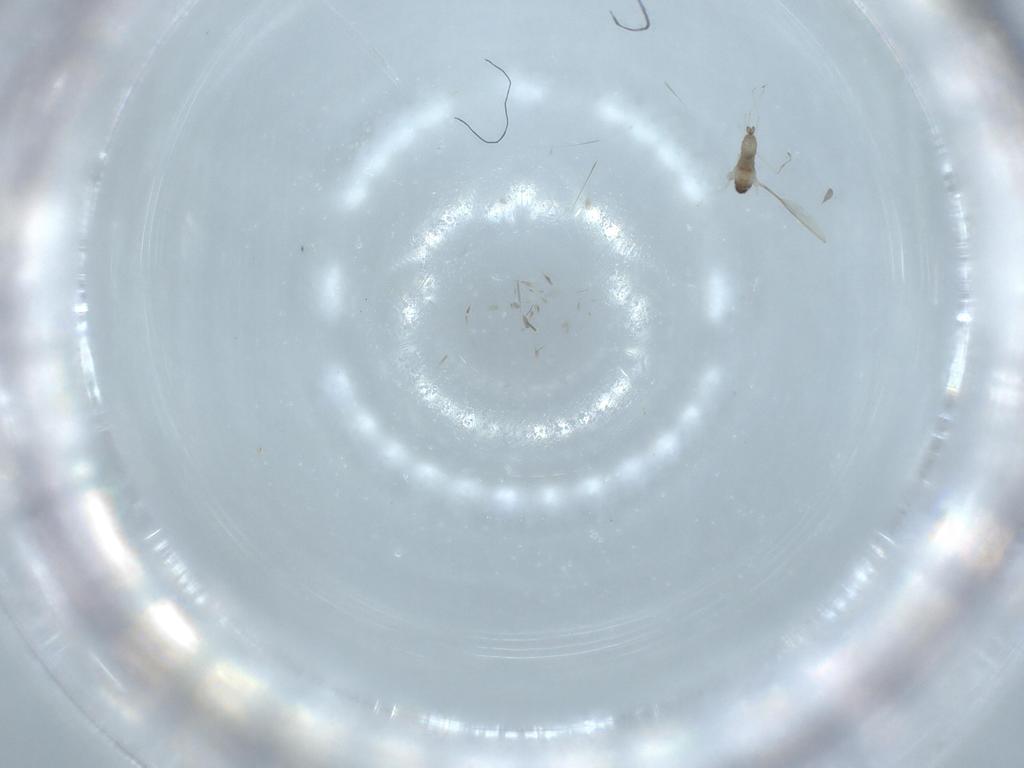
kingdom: Animalia
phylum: Arthropoda
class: Insecta
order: Diptera
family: Cecidomyiidae
